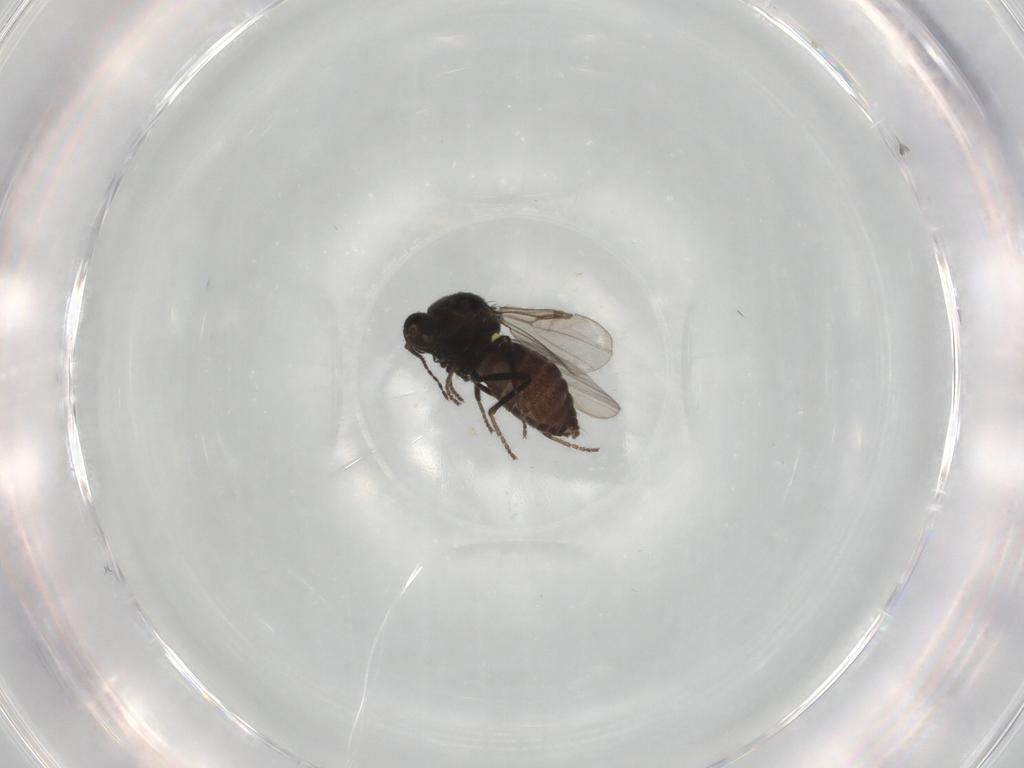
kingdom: Animalia
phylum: Arthropoda
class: Insecta
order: Diptera
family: Ceratopogonidae
